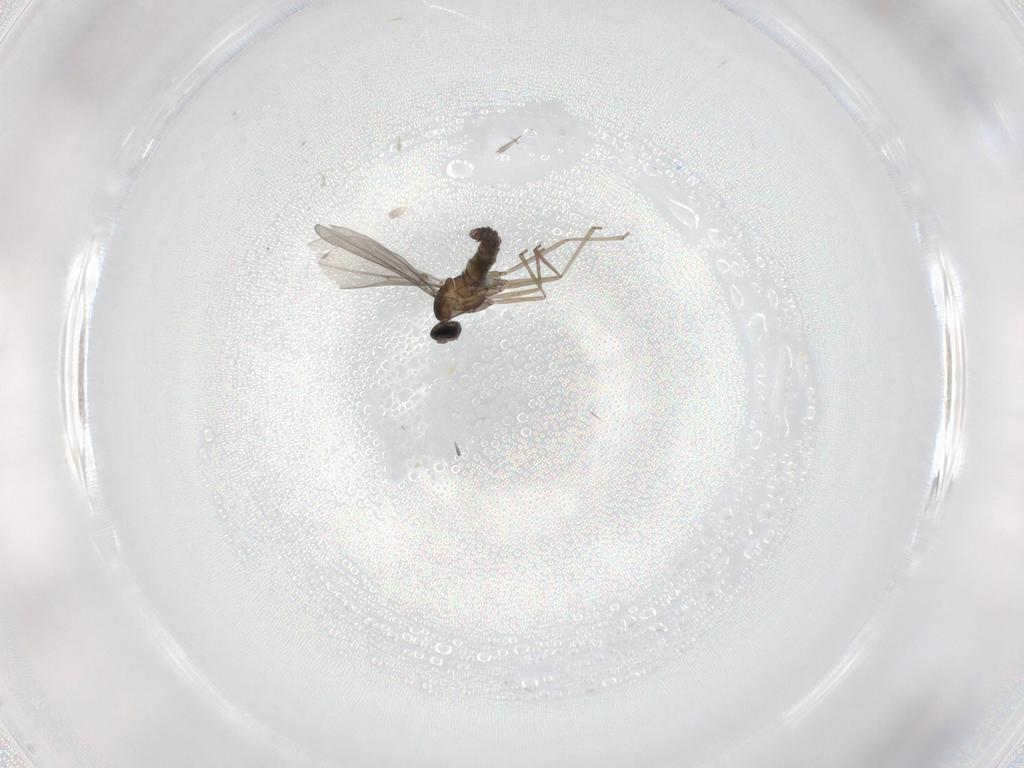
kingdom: Animalia
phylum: Arthropoda
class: Insecta
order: Diptera
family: Cecidomyiidae
